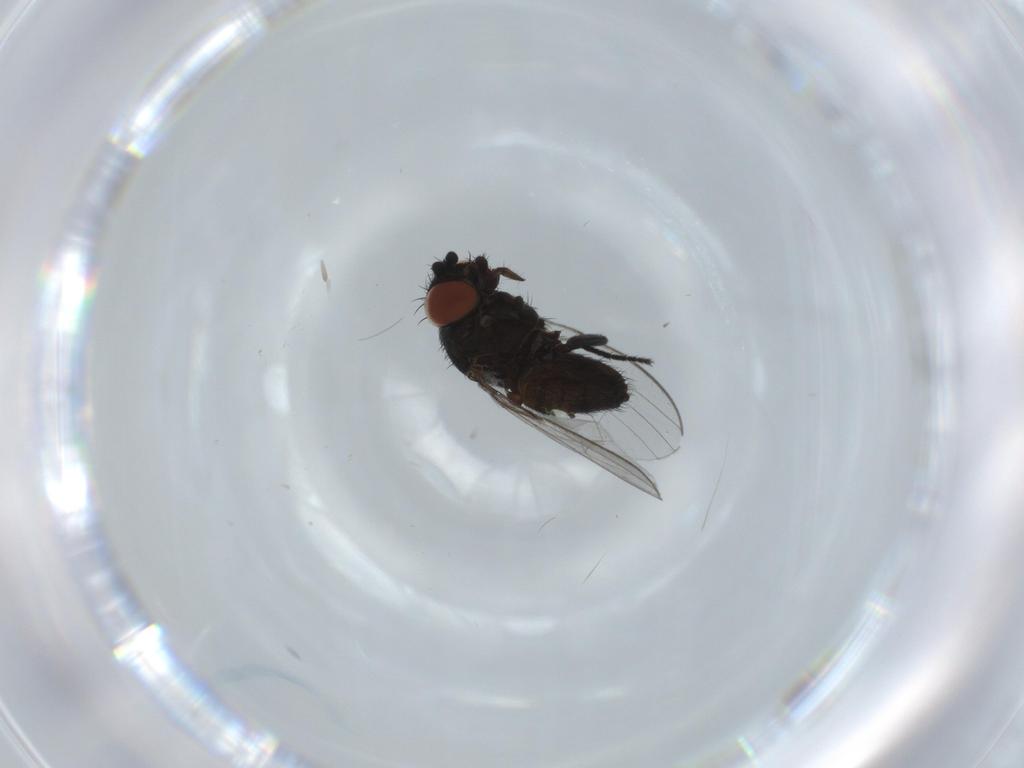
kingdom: Animalia
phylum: Arthropoda
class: Insecta
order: Diptera
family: Milichiidae
